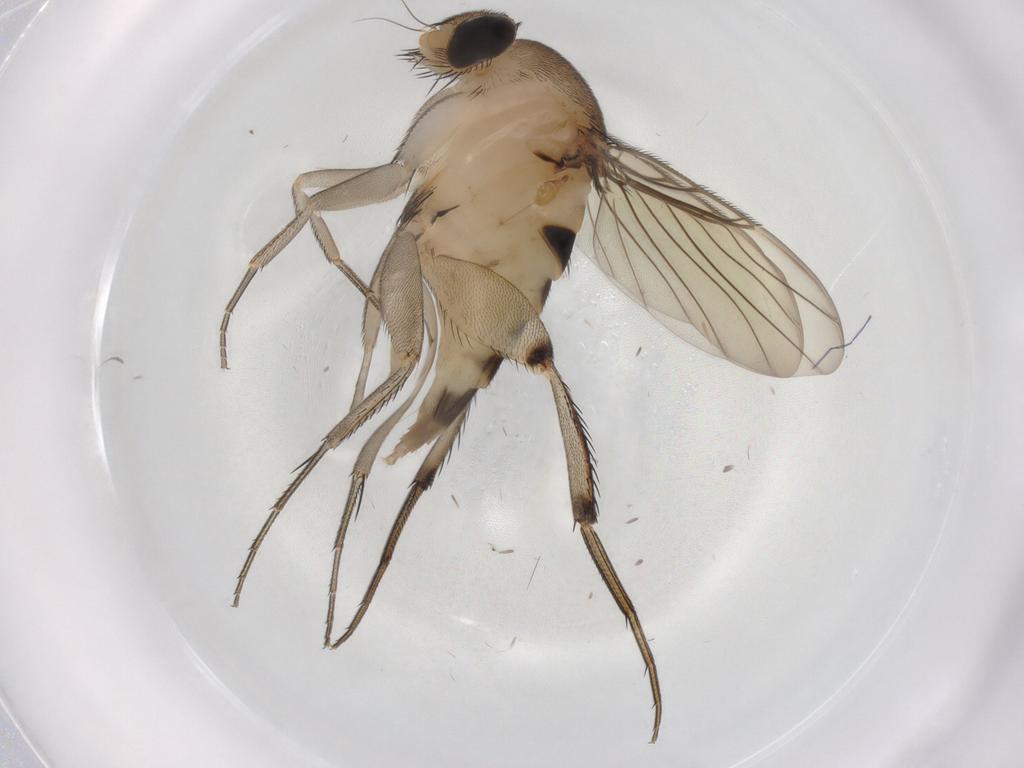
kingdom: Animalia
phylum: Arthropoda
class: Insecta
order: Diptera
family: Phoridae
